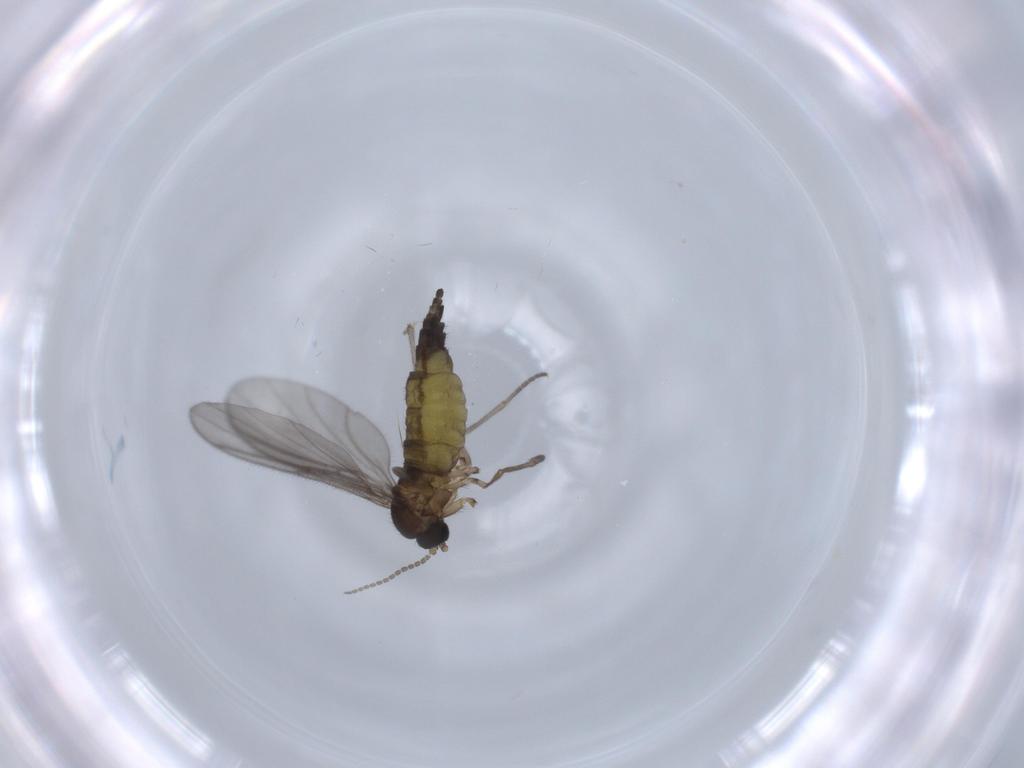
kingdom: Animalia
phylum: Arthropoda
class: Insecta
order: Diptera
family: Sciaridae
